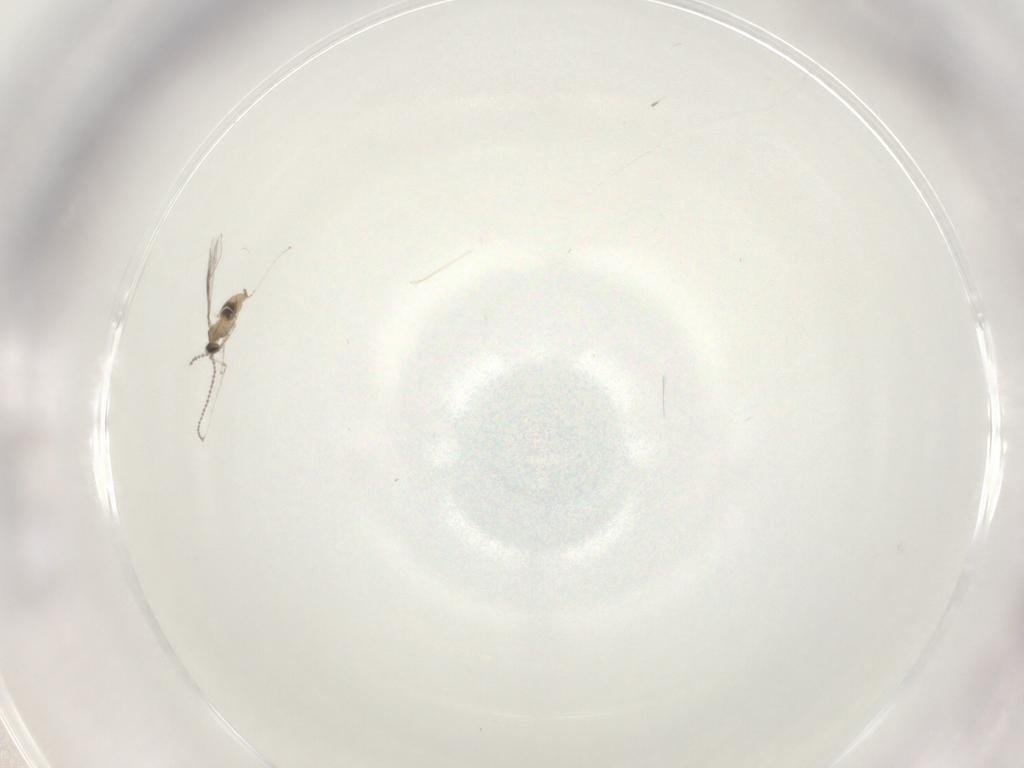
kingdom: Animalia
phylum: Arthropoda
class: Insecta
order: Diptera
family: Cecidomyiidae
